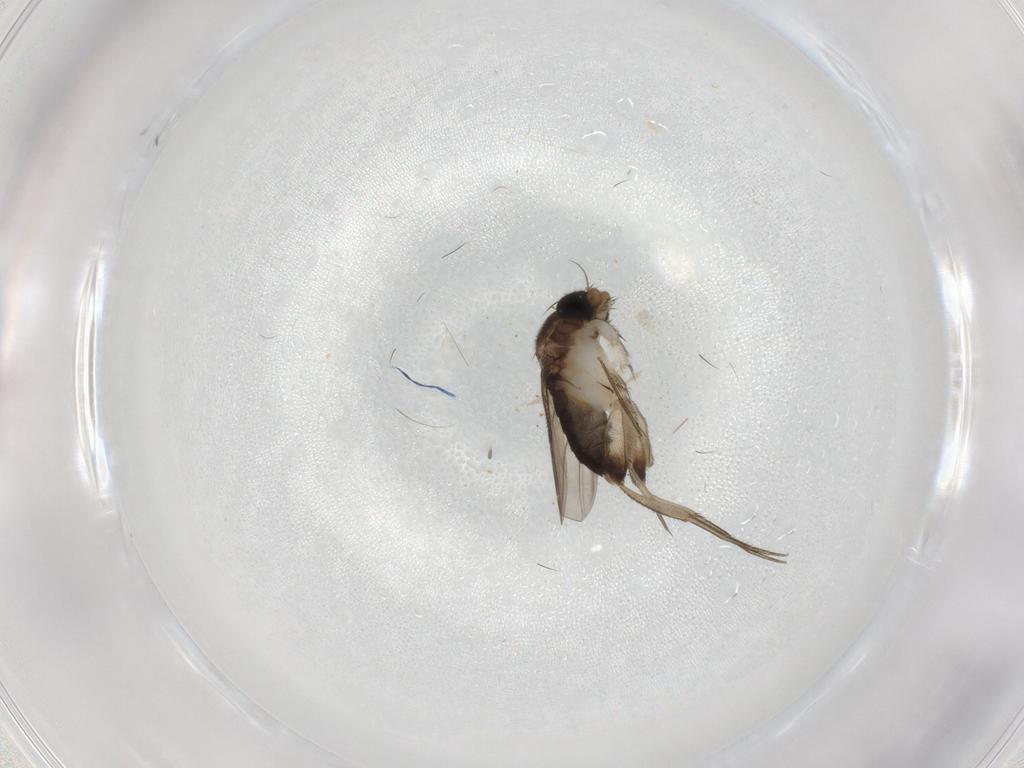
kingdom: Animalia
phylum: Arthropoda
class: Insecta
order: Diptera
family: Phoridae
